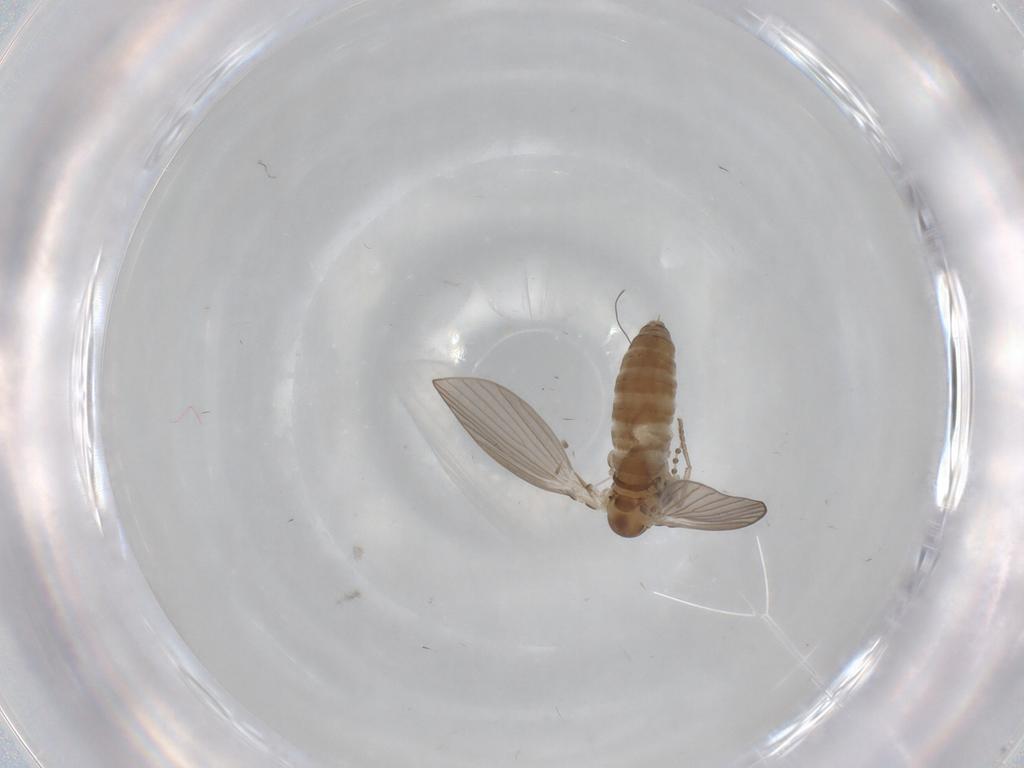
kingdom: Animalia
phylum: Arthropoda
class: Insecta
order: Diptera
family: Psychodidae
